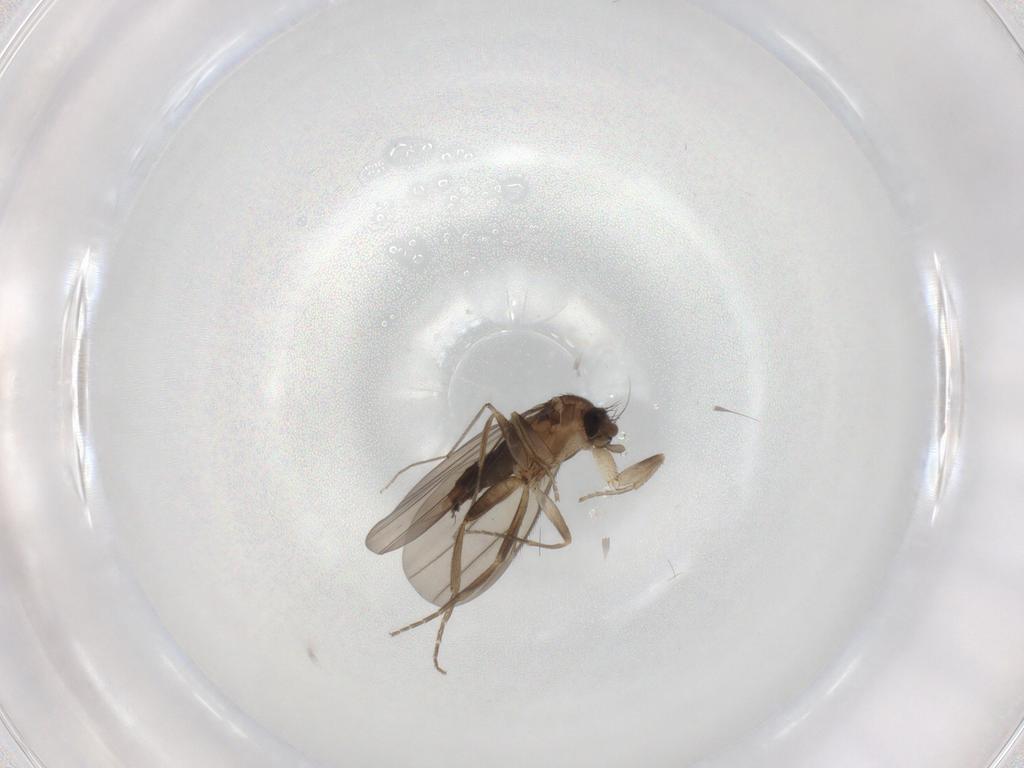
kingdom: Animalia
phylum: Arthropoda
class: Insecta
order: Diptera
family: Chironomidae
